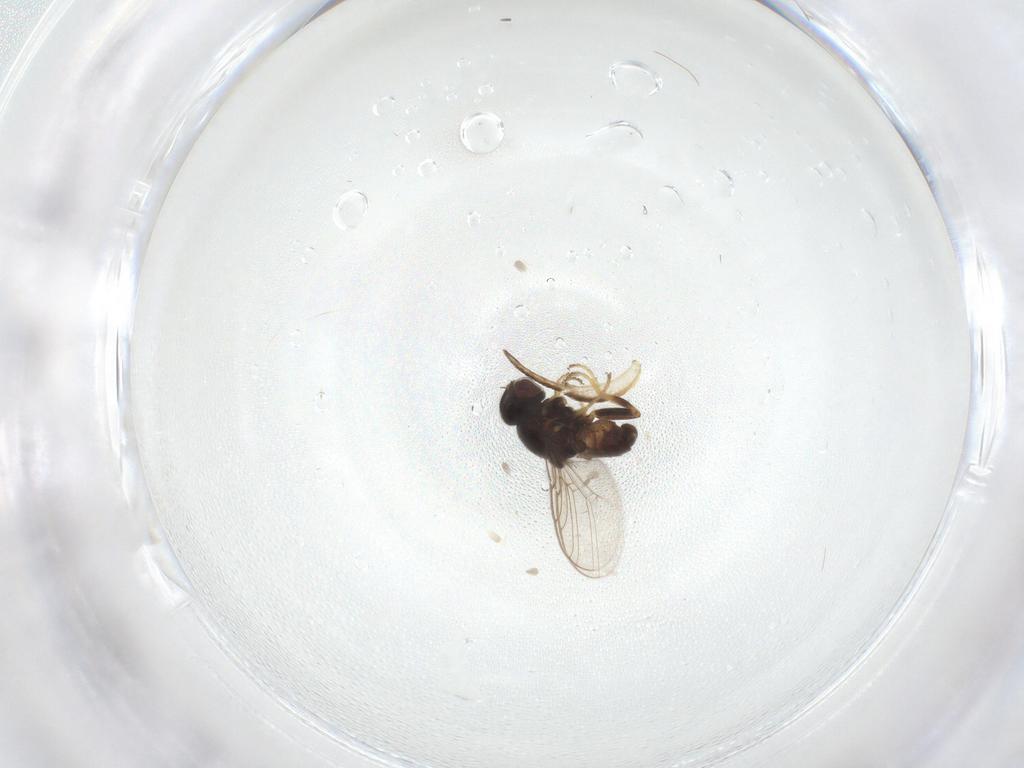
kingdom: Animalia
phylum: Arthropoda
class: Insecta
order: Diptera
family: Chloropidae
